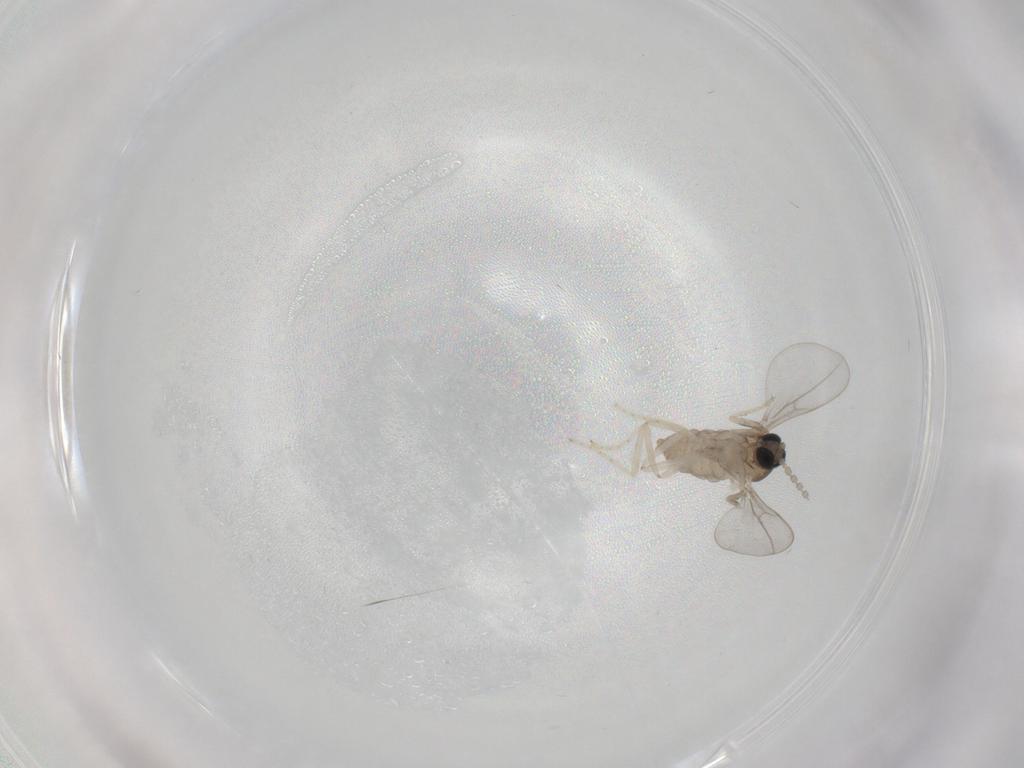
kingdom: Animalia
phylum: Arthropoda
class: Insecta
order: Diptera
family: Cecidomyiidae
